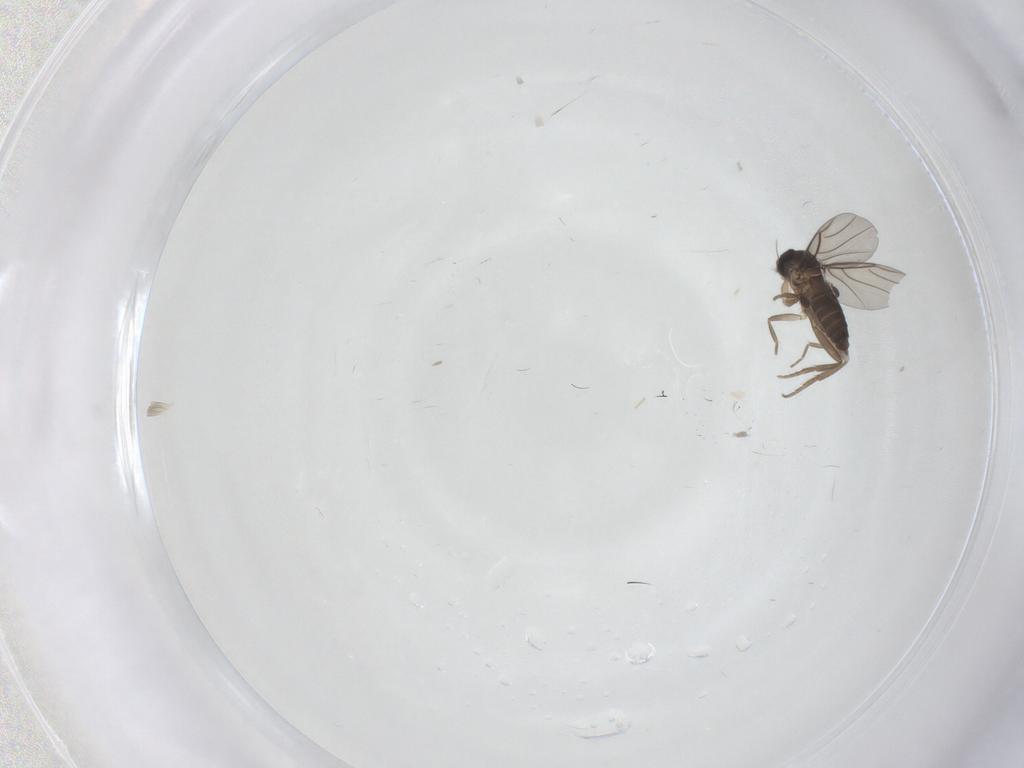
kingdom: Animalia
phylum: Arthropoda
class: Insecta
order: Diptera
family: Phoridae
